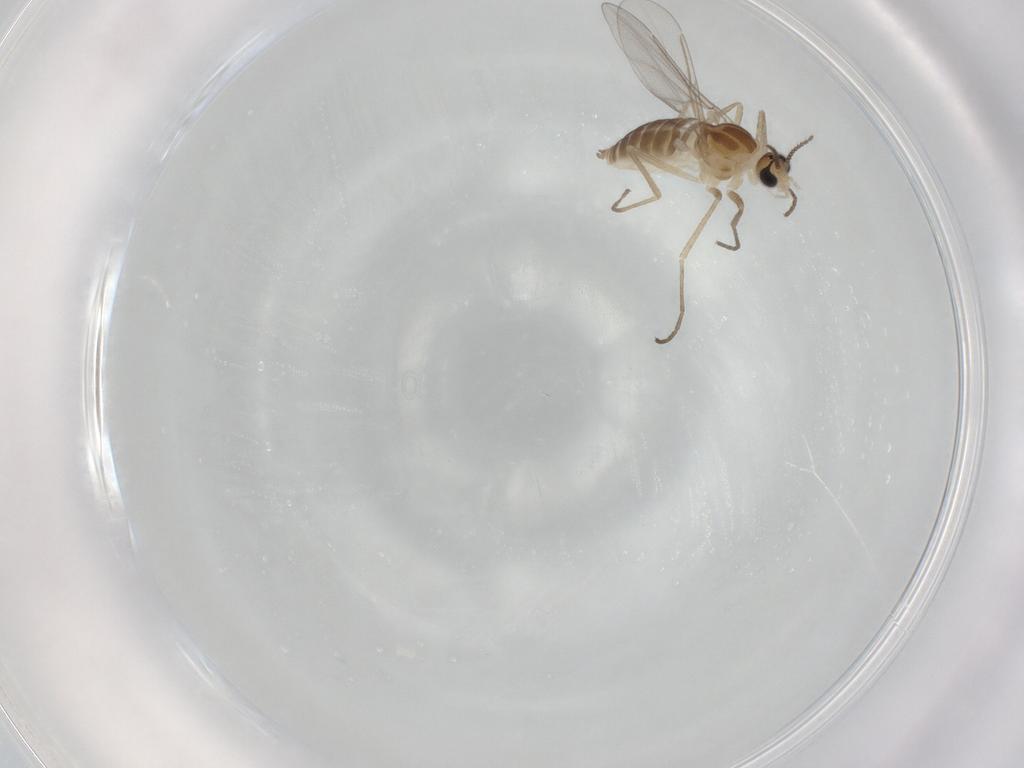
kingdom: Animalia
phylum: Arthropoda
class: Insecta
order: Diptera
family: Cecidomyiidae
